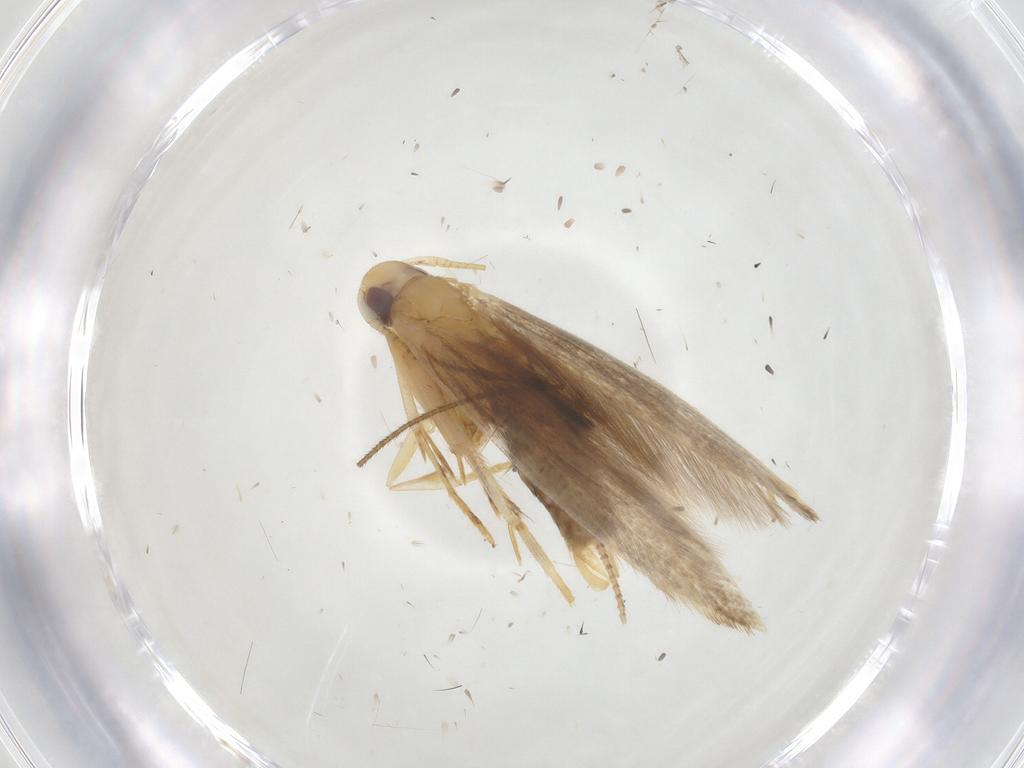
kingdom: Animalia
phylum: Arthropoda
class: Insecta
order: Lepidoptera
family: Cosmopterigidae
